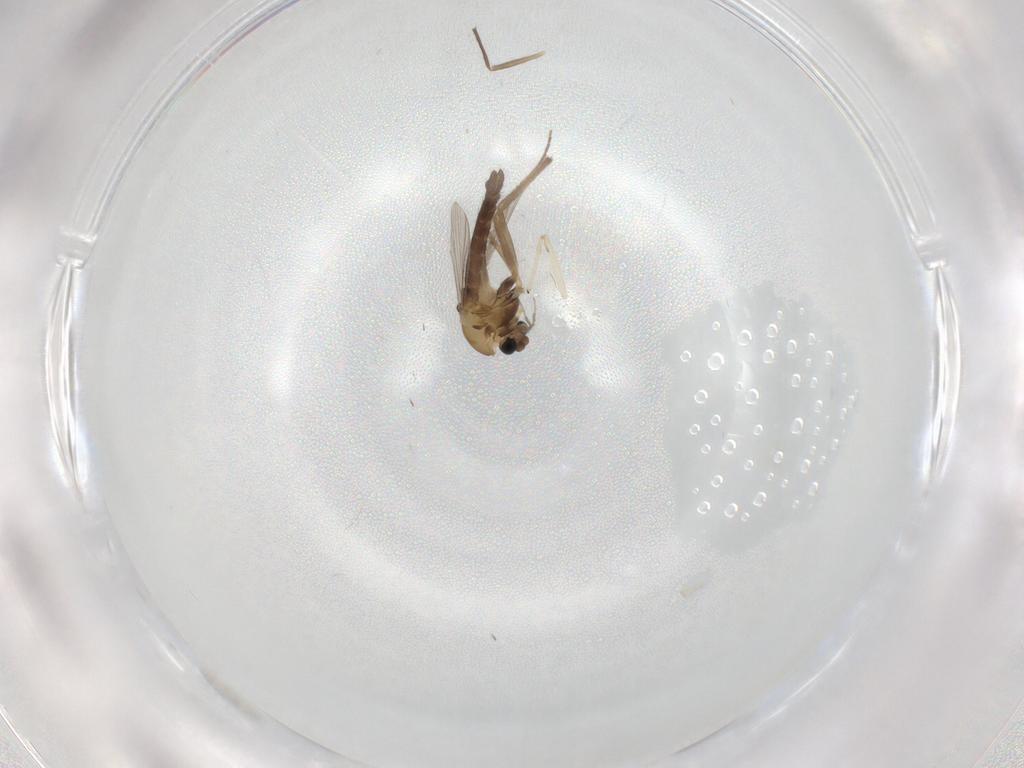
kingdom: Animalia
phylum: Arthropoda
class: Insecta
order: Diptera
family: Chironomidae
